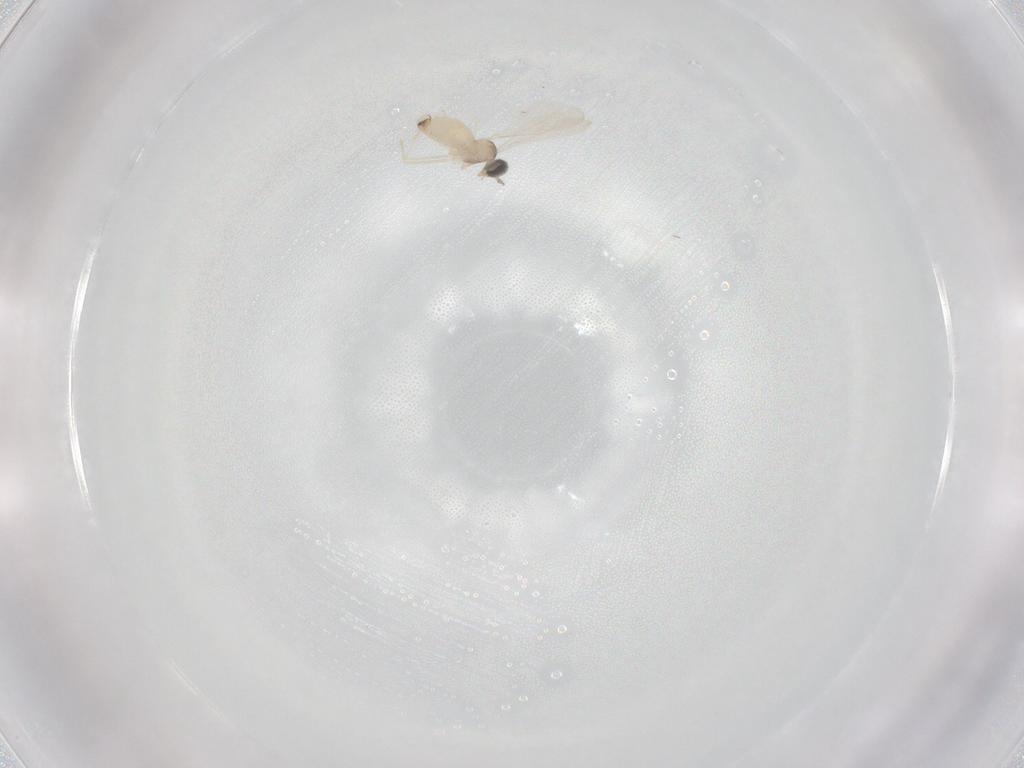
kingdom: Animalia
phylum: Arthropoda
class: Insecta
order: Diptera
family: Cecidomyiidae
